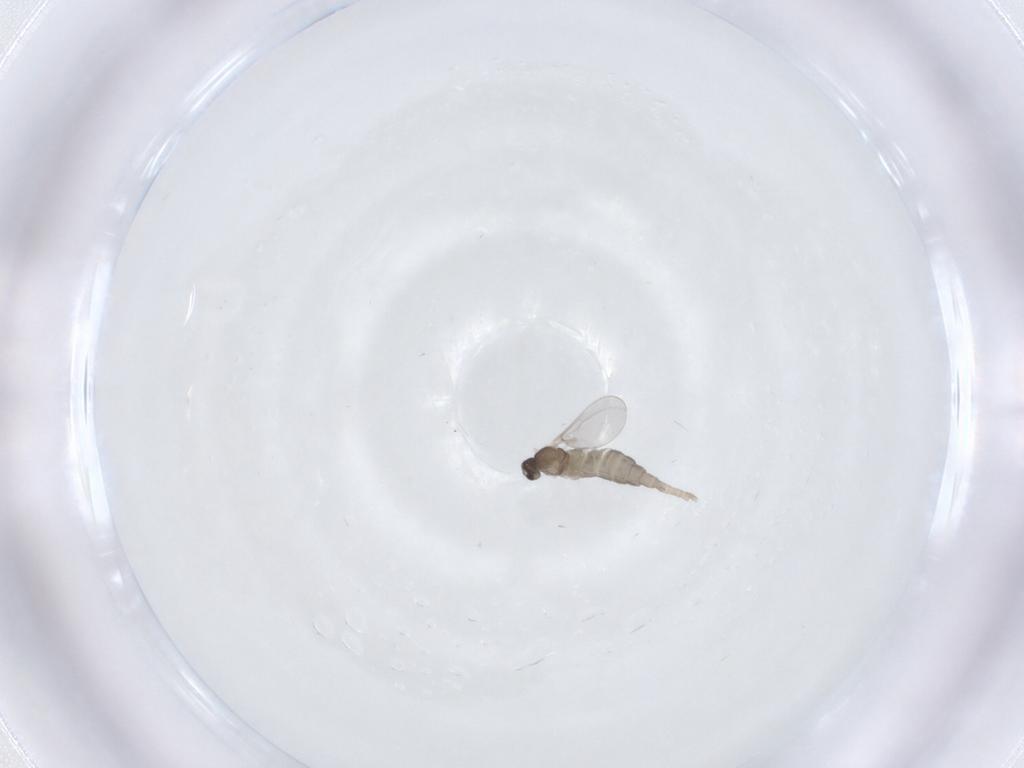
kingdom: Animalia
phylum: Arthropoda
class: Insecta
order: Diptera
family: Cecidomyiidae
